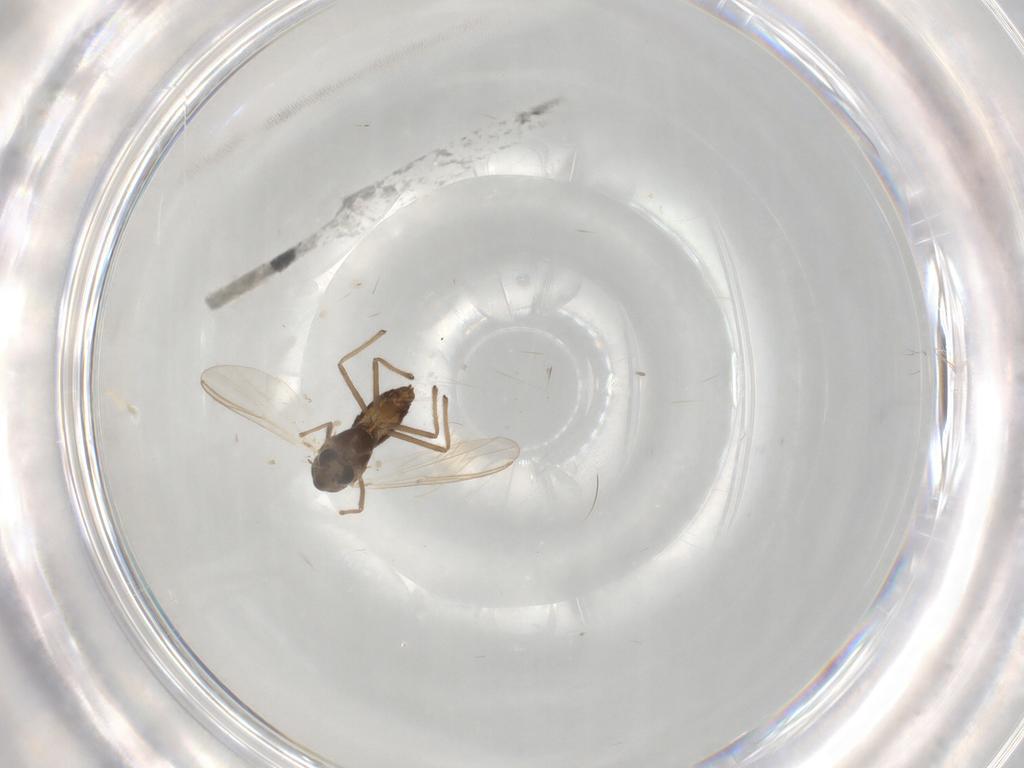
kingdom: Animalia
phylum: Arthropoda
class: Insecta
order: Diptera
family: Chironomidae
